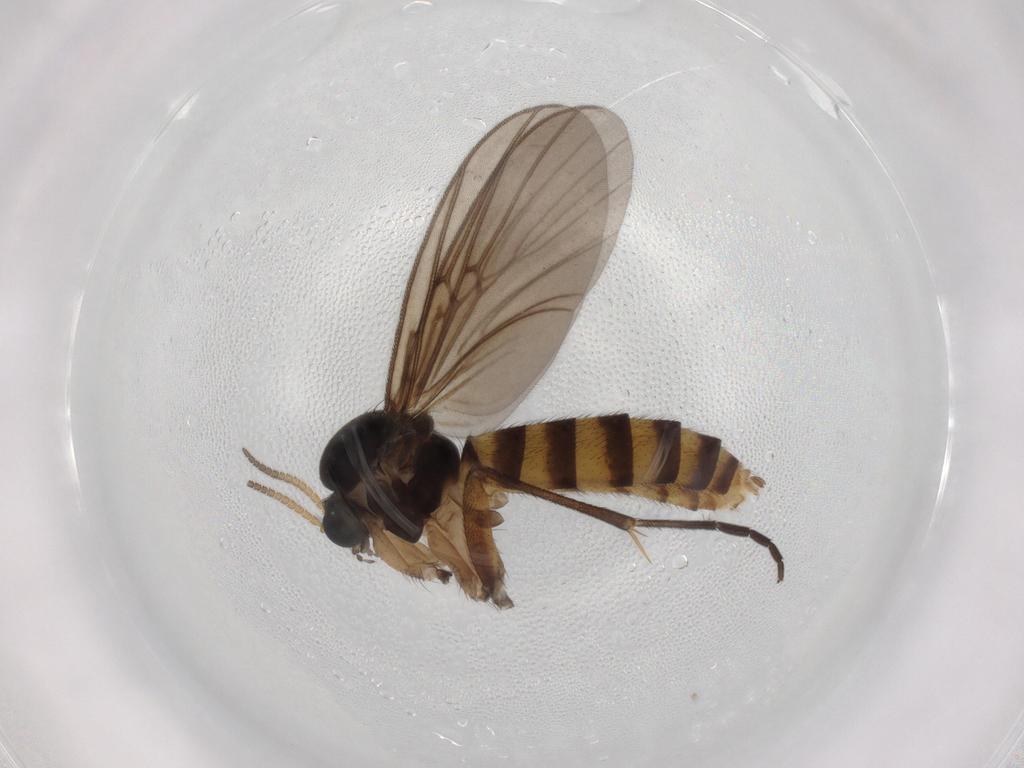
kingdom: Animalia
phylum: Arthropoda
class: Insecta
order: Diptera
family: Mycetophilidae
